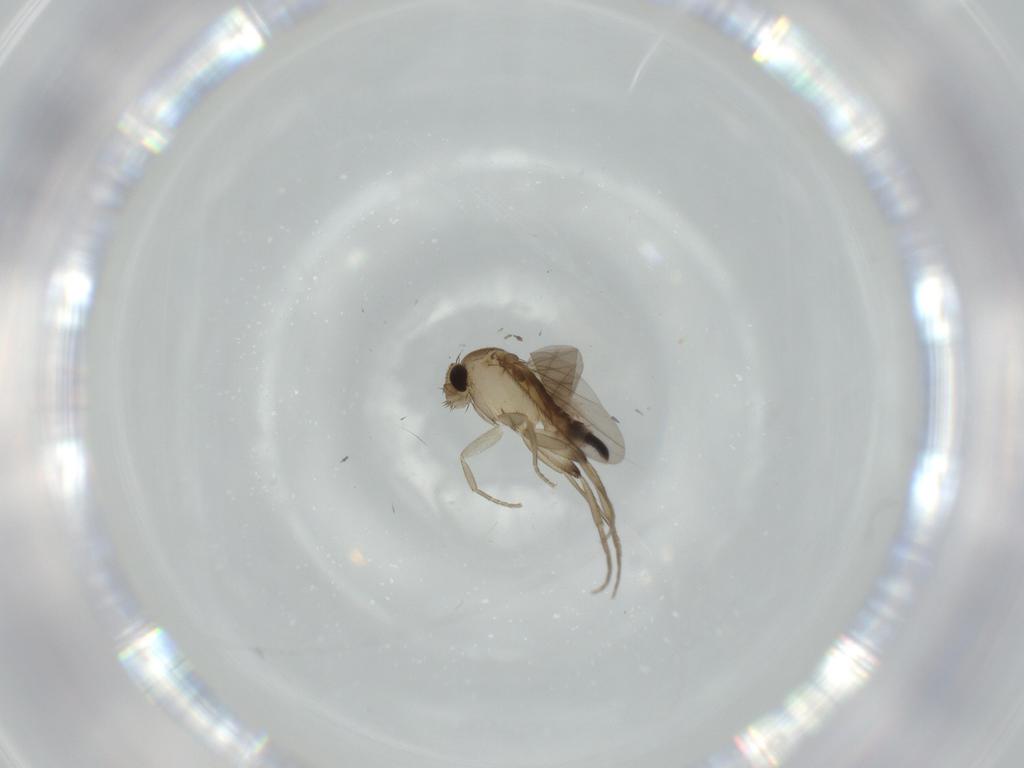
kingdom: Animalia
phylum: Arthropoda
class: Insecta
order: Diptera
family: Phoridae
